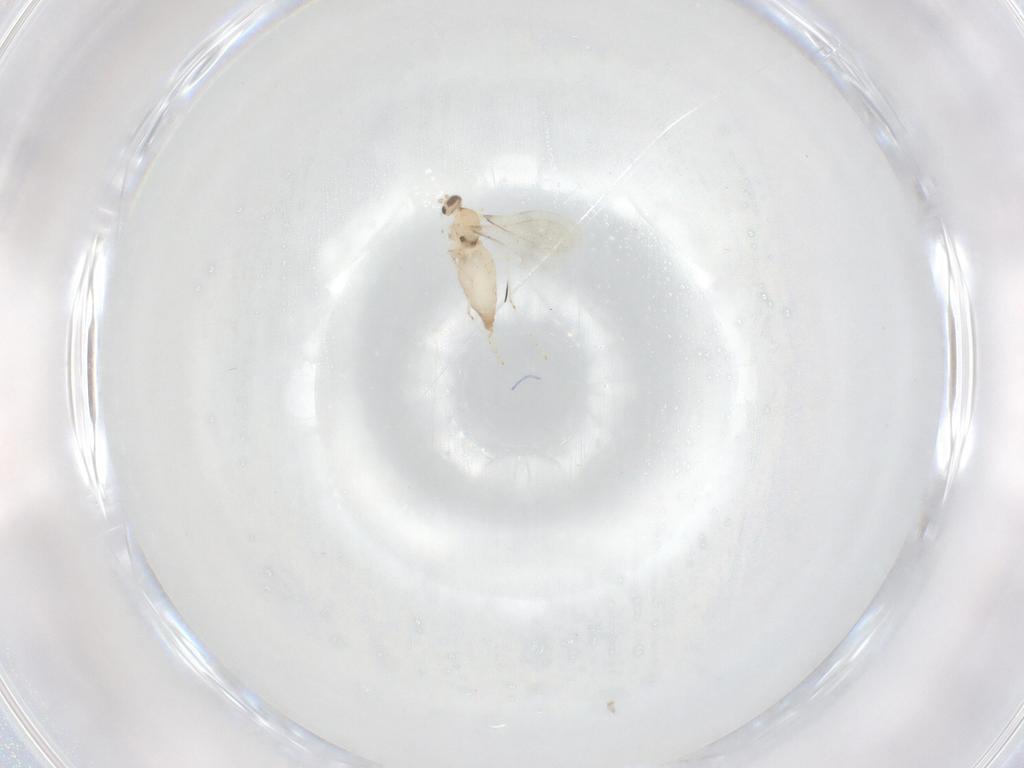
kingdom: Animalia
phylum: Arthropoda
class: Insecta
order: Diptera
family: Cecidomyiidae
